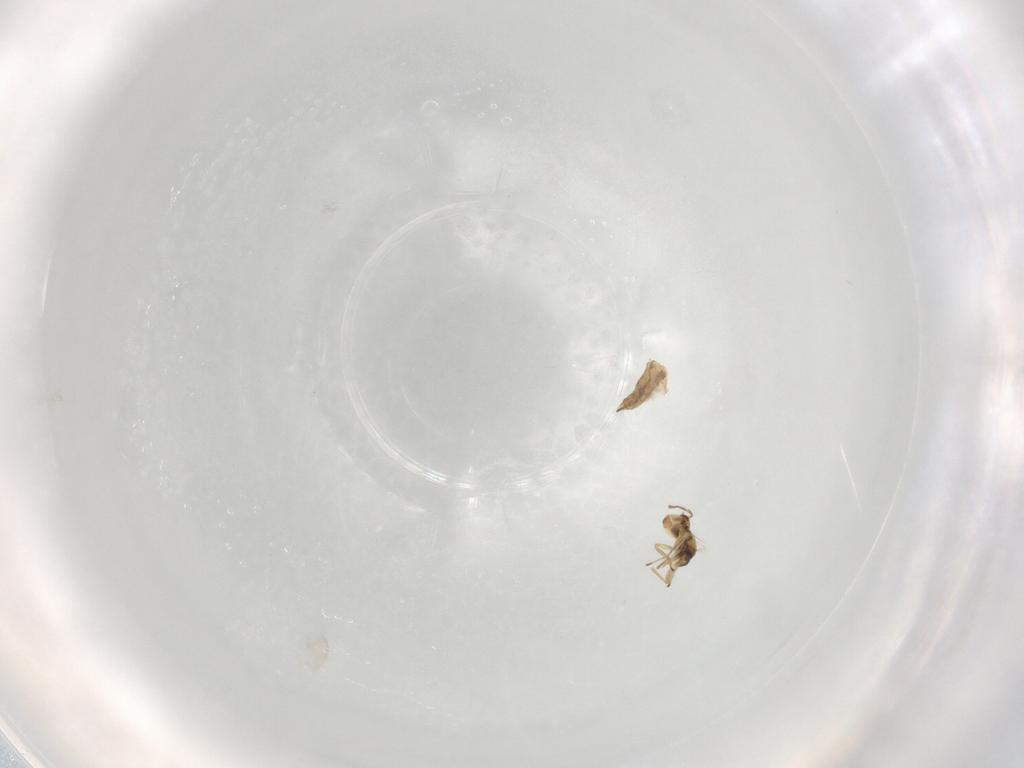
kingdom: Animalia
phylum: Arthropoda
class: Insecta
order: Hymenoptera
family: Eulophidae
